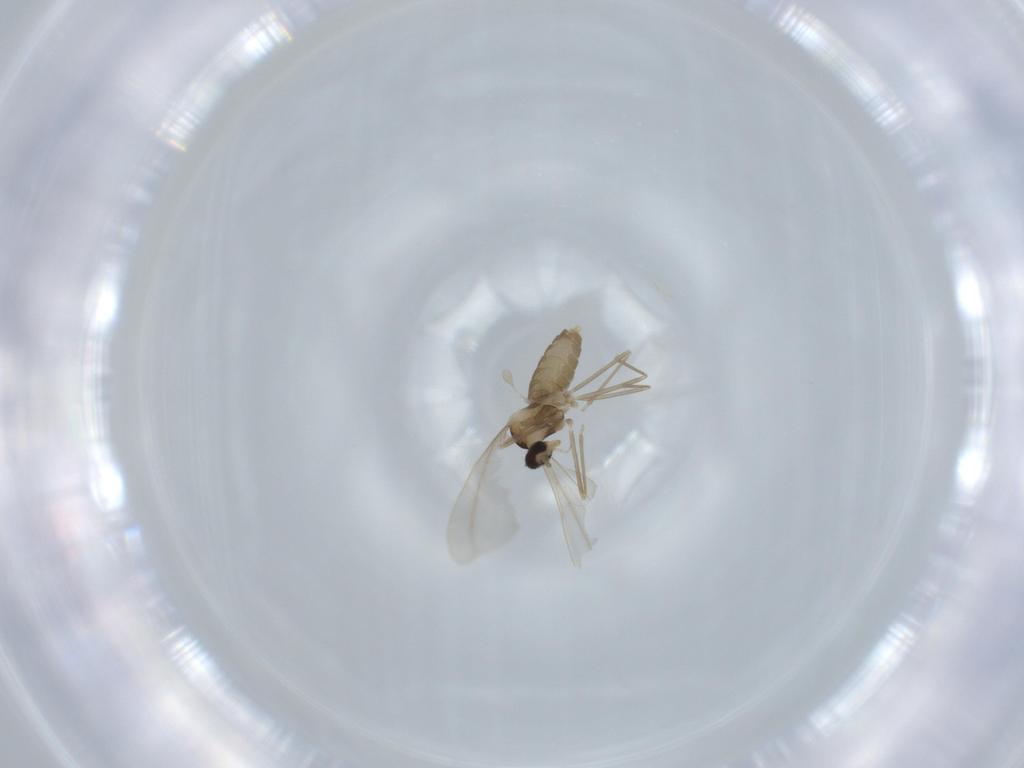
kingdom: Animalia
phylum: Arthropoda
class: Insecta
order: Diptera
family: Chironomidae
